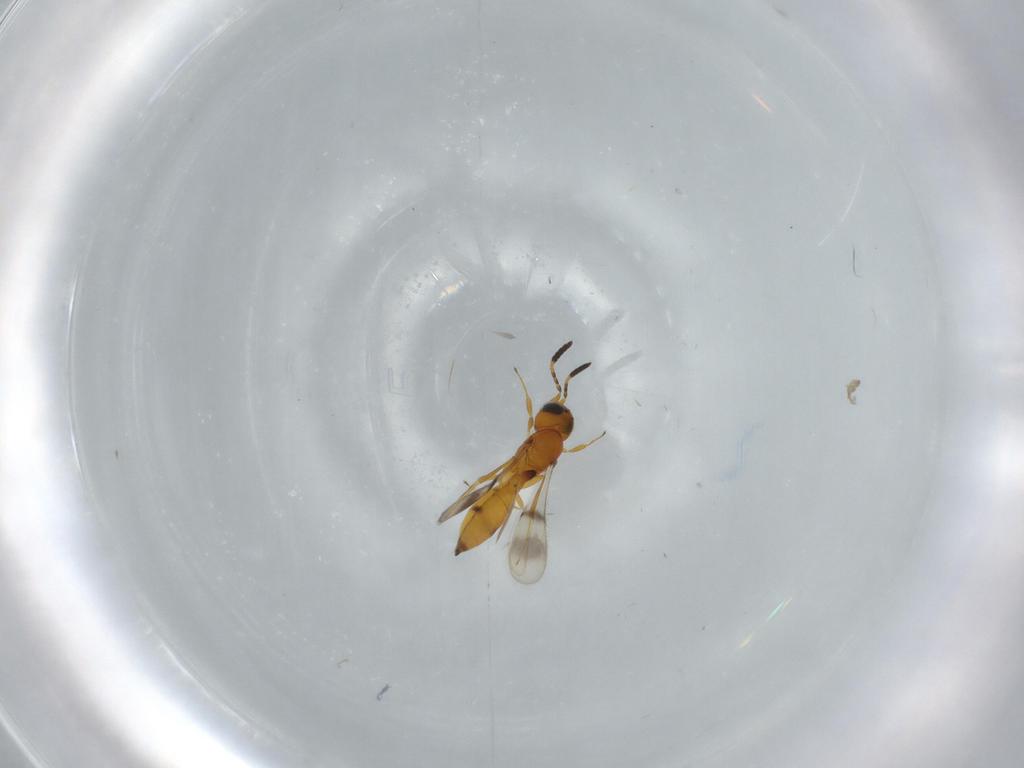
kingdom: Animalia
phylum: Arthropoda
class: Insecta
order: Hymenoptera
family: Scelionidae
